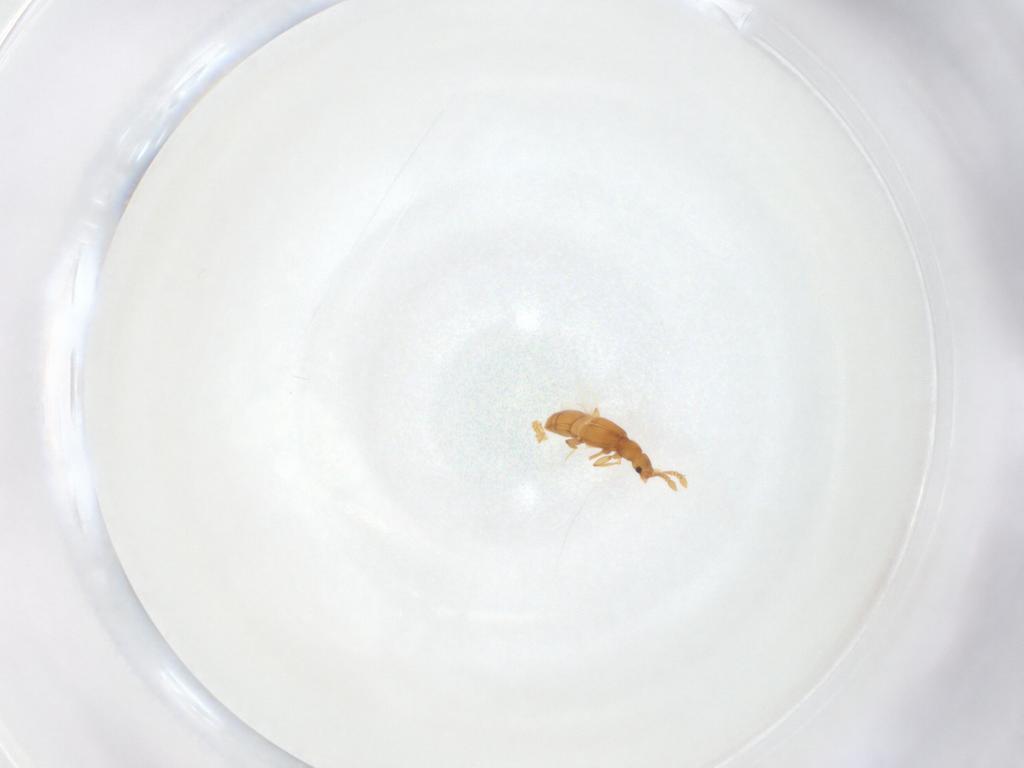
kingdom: Animalia
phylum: Arthropoda
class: Insecta
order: Coleoptera
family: Staphylinidae
